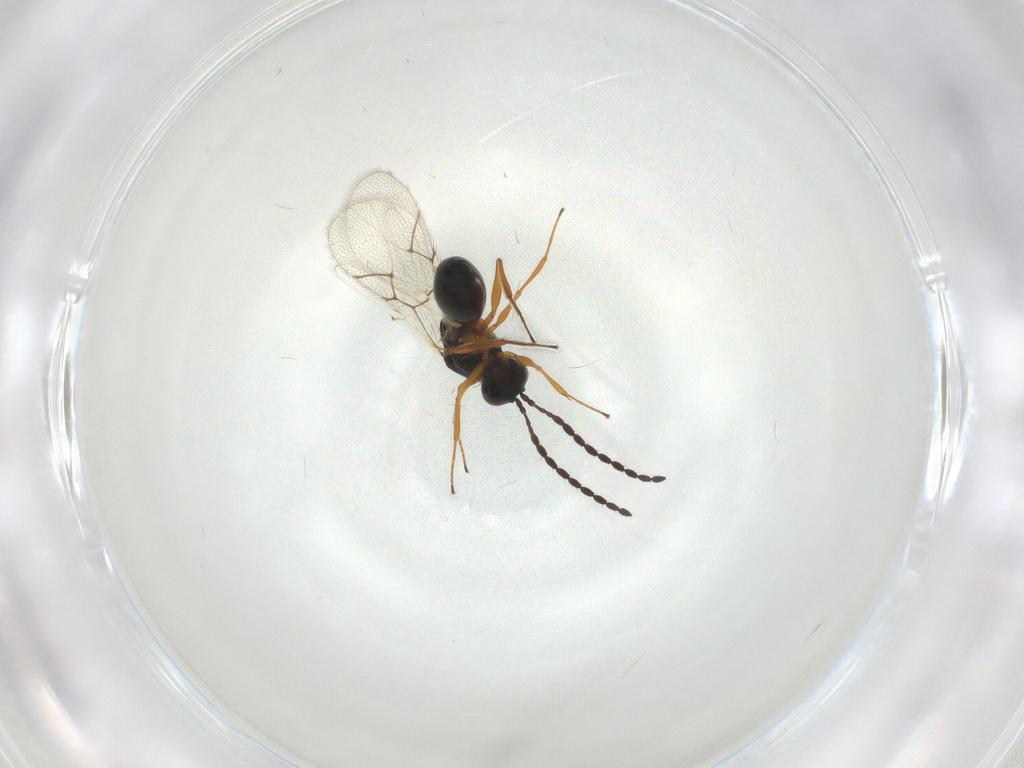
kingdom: Animalia
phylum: Arthropoda
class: Insecta
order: Hymenoptera
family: Figitidae
